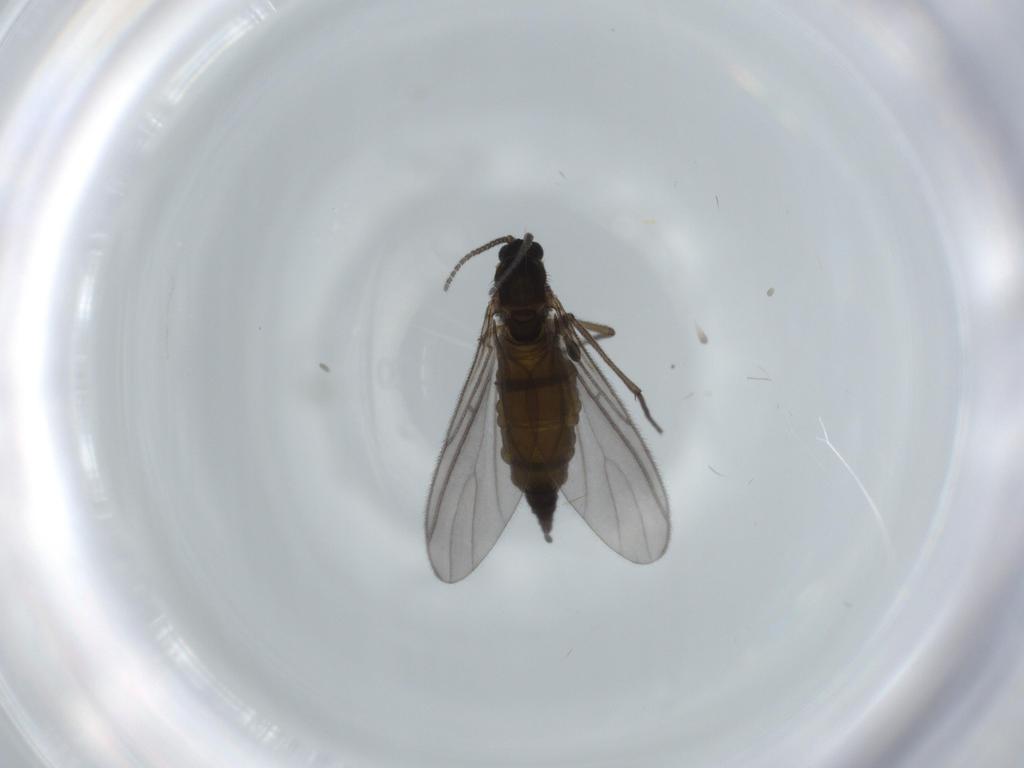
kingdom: Animalia
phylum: Arthropoda
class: Insecta
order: Diptera
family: Sciaridae
